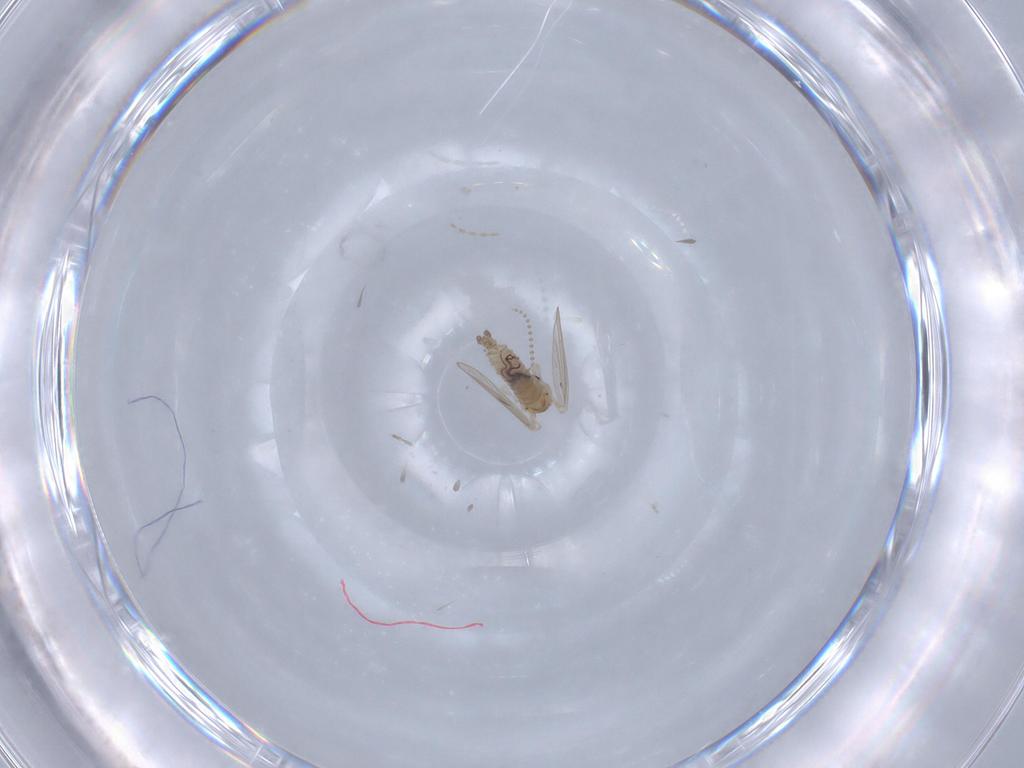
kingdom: Animalia
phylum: Arthropoda
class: Insecta
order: Diptera
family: Psychodidae
